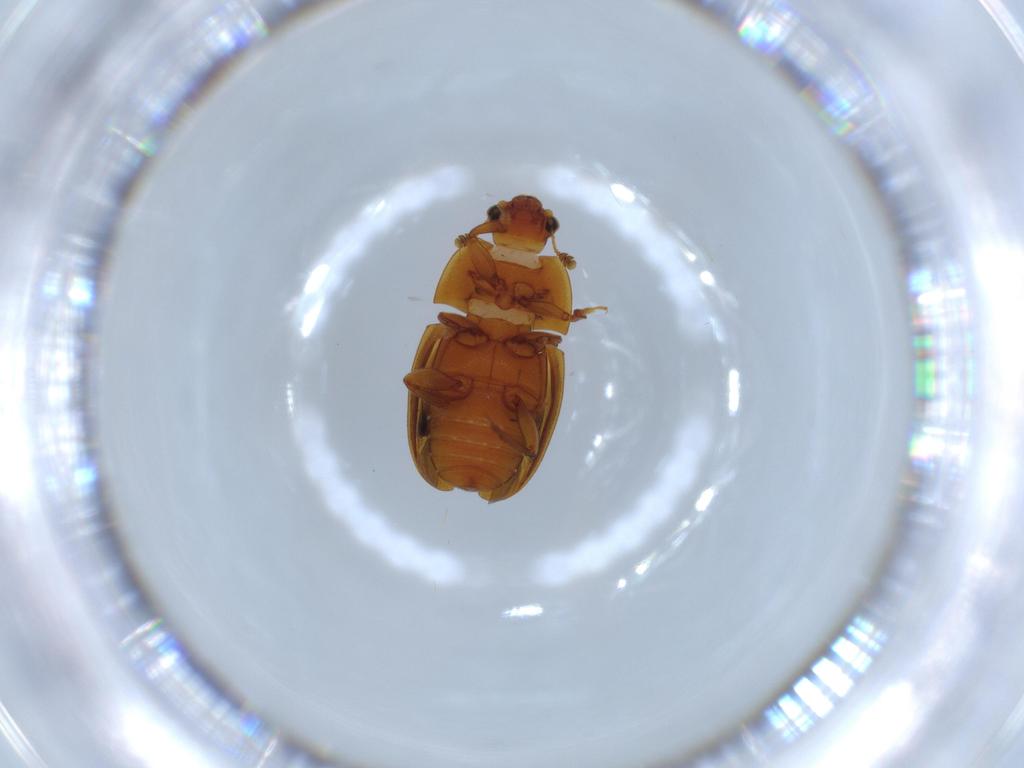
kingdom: Animalia
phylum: Arthropoda
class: Insecta
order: Coleoptera
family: Scraptiidae
